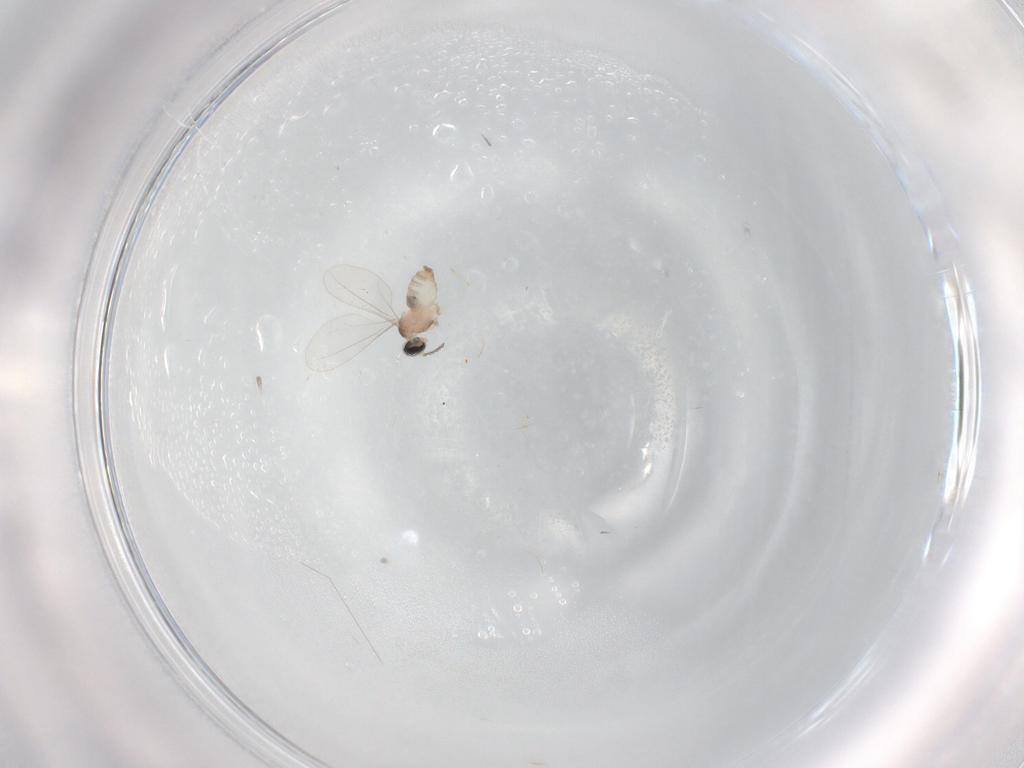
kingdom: Animalia
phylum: Arthropoda
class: Insecta
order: Diptera
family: Cecidomyiidae
